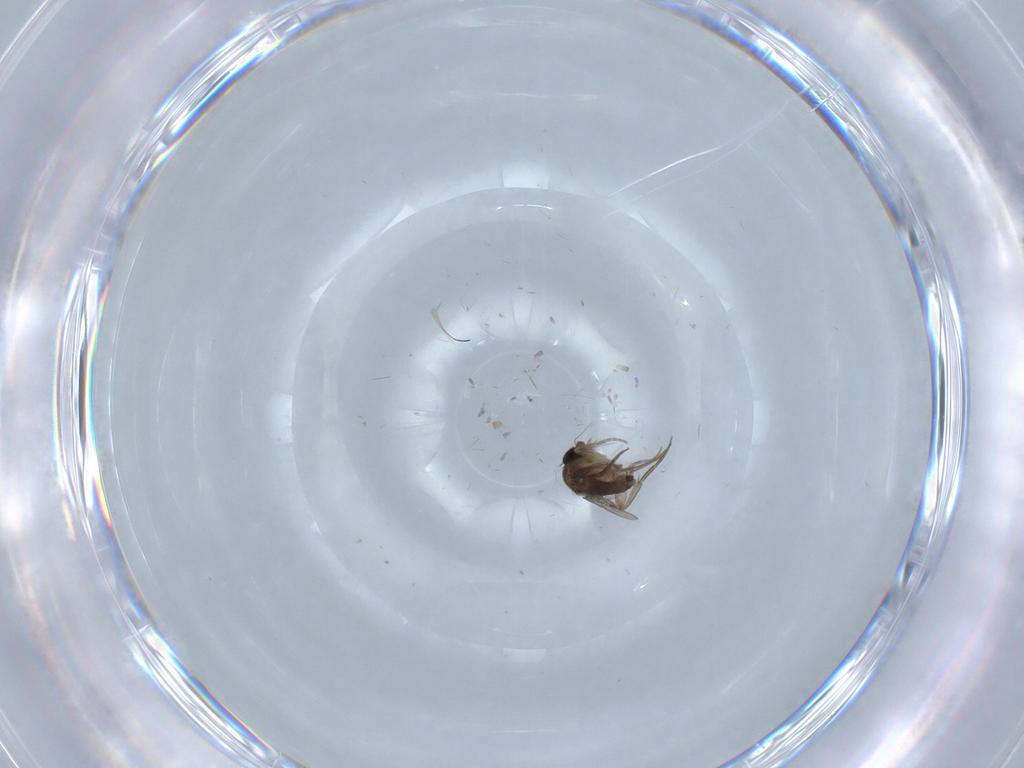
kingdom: Animalia
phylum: Arthropoda
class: Insecta
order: Diptera
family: Phoridae
